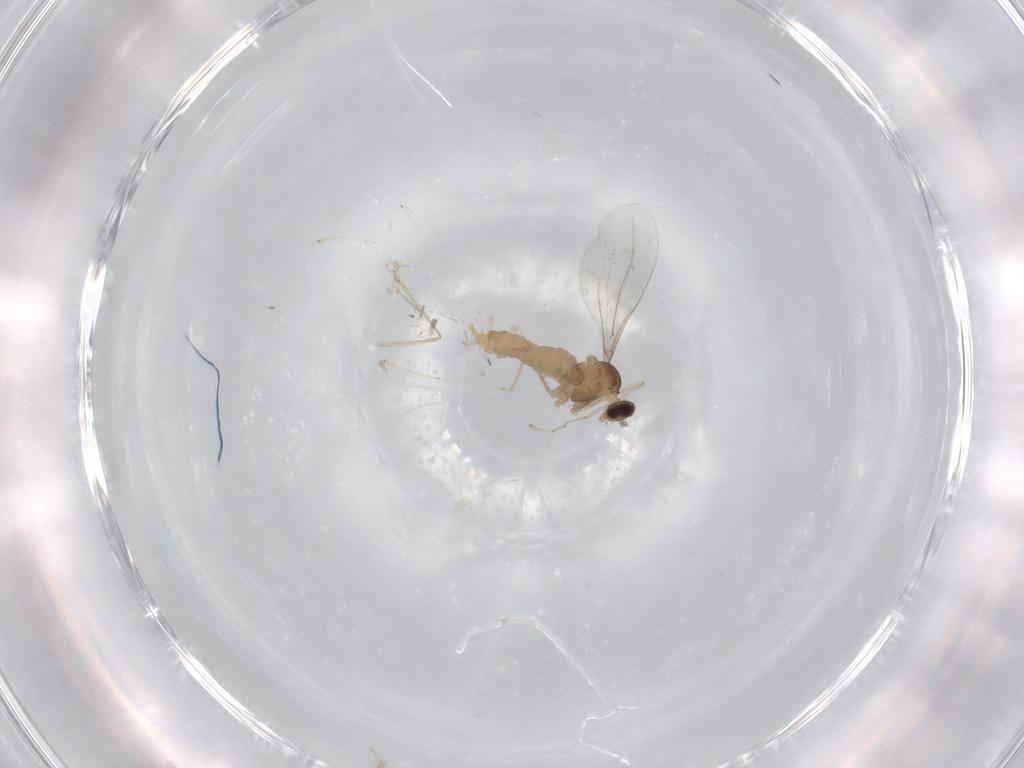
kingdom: Animalia
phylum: Arthropoda
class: Insecta
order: Diptera
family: Cecidomyiidae
